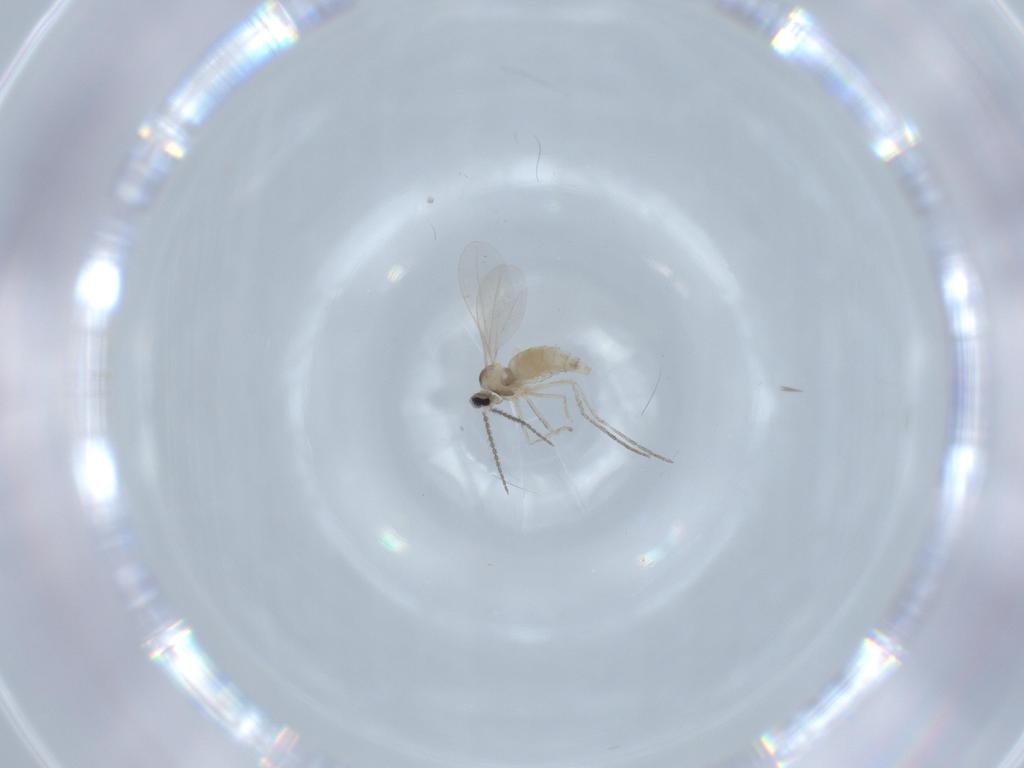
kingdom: Animalia
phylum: Arthropoda
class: Insecta
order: Diptera
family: Cecidomyiidae
